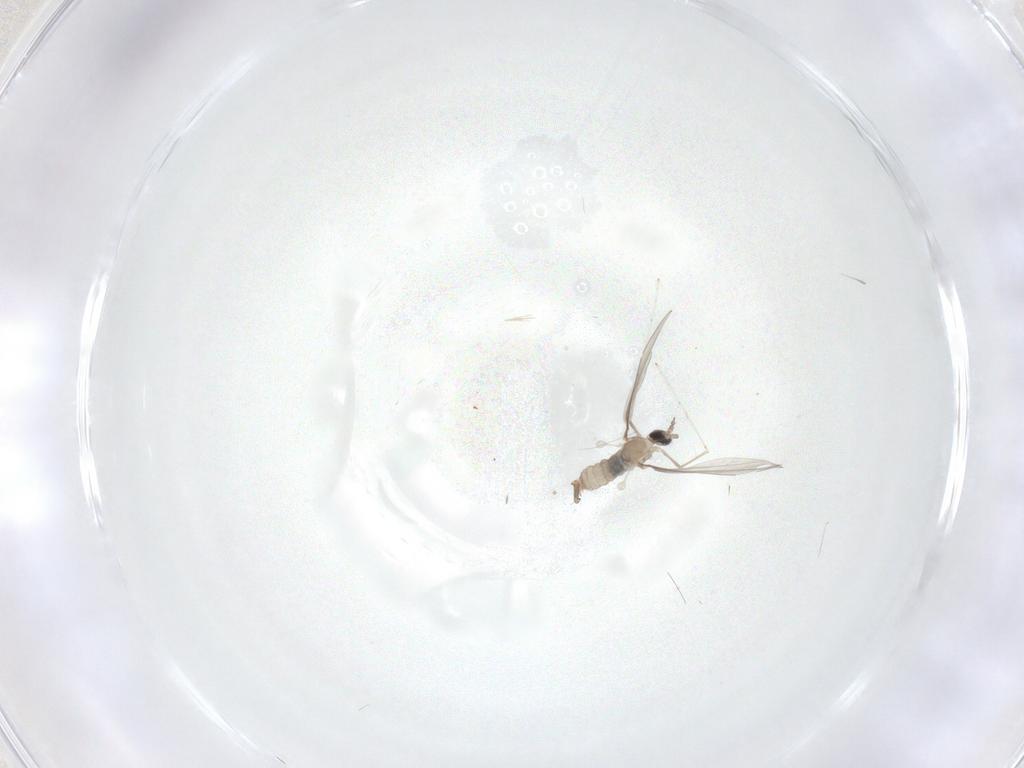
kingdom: Animalia
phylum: Arthropoda
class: Insecta
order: Diptera
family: Cecidomyiidae
